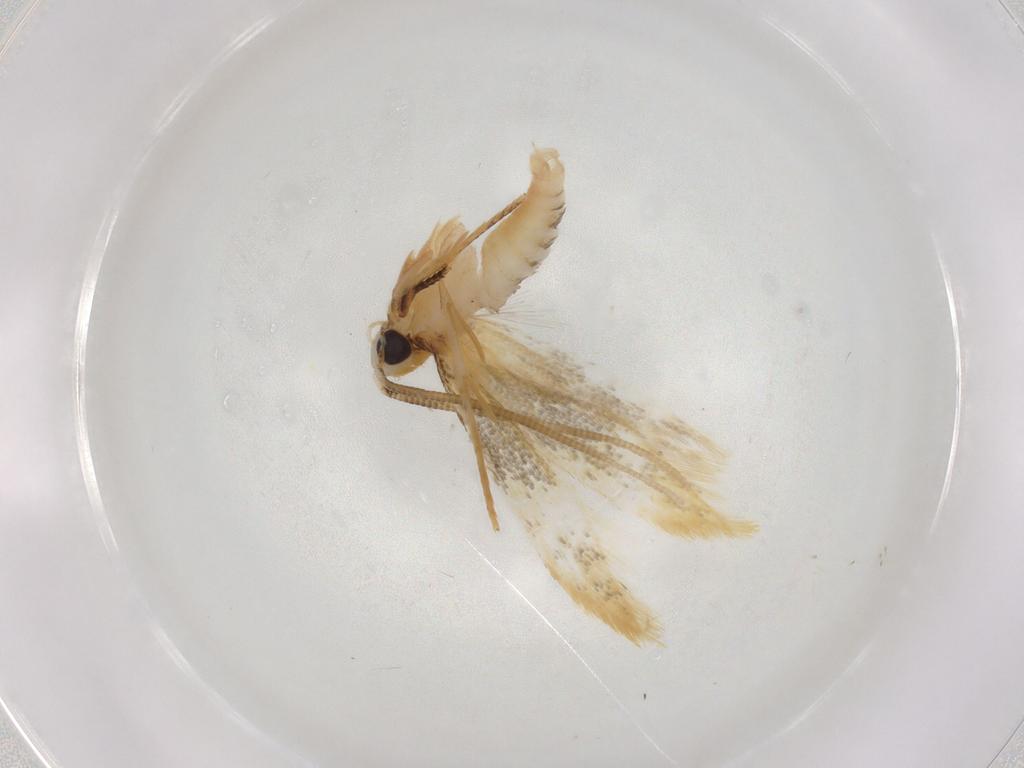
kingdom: Animalia
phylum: Arthropoda
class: Insecta
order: Lepidoptera
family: Tineidae
